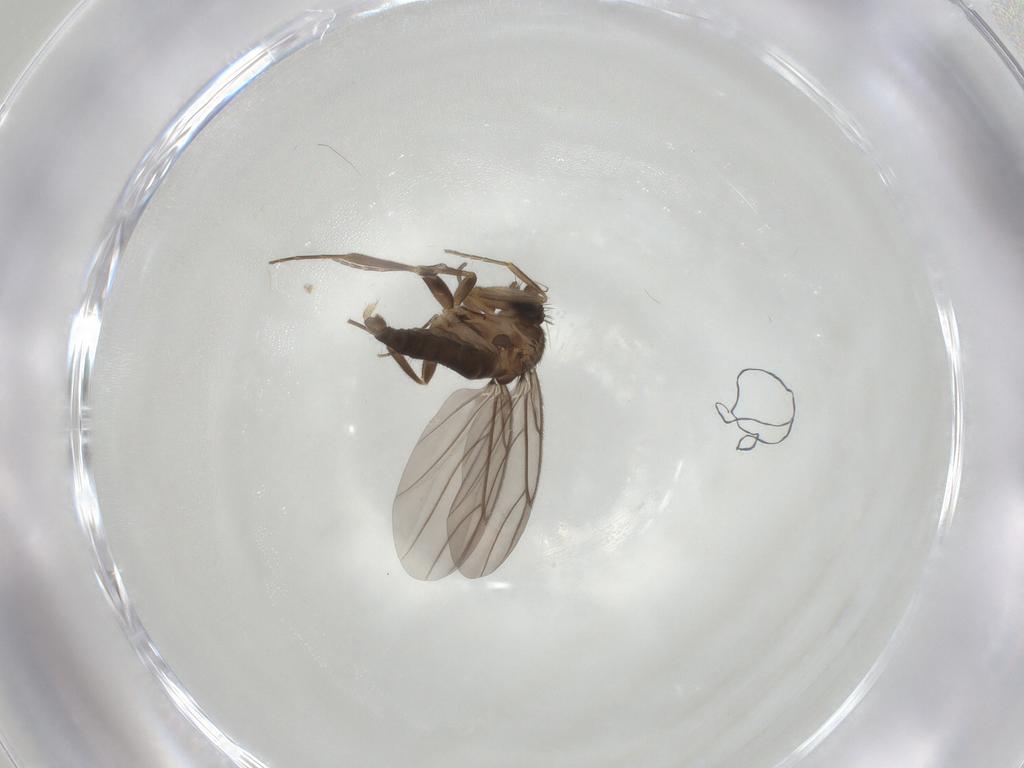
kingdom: Animalia
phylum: Arthropoda
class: Insecta
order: Diptera
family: Phoridae
